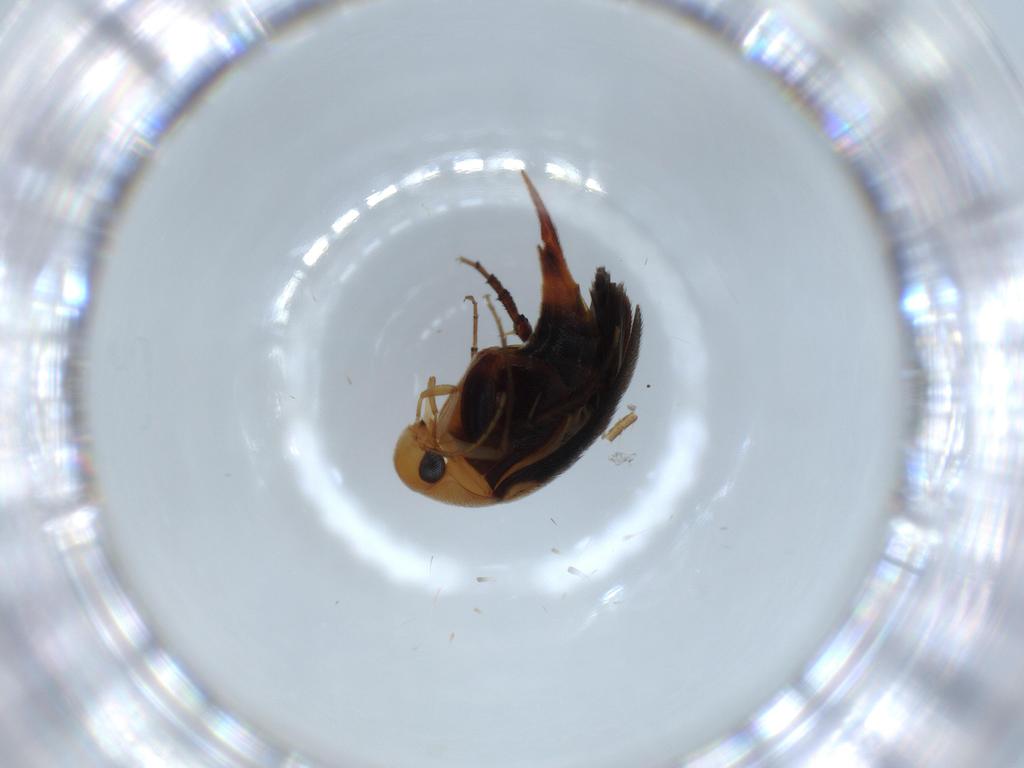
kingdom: Animalia
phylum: Arthropoda
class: Insecta
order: Coleoptera
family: Mordellidae
